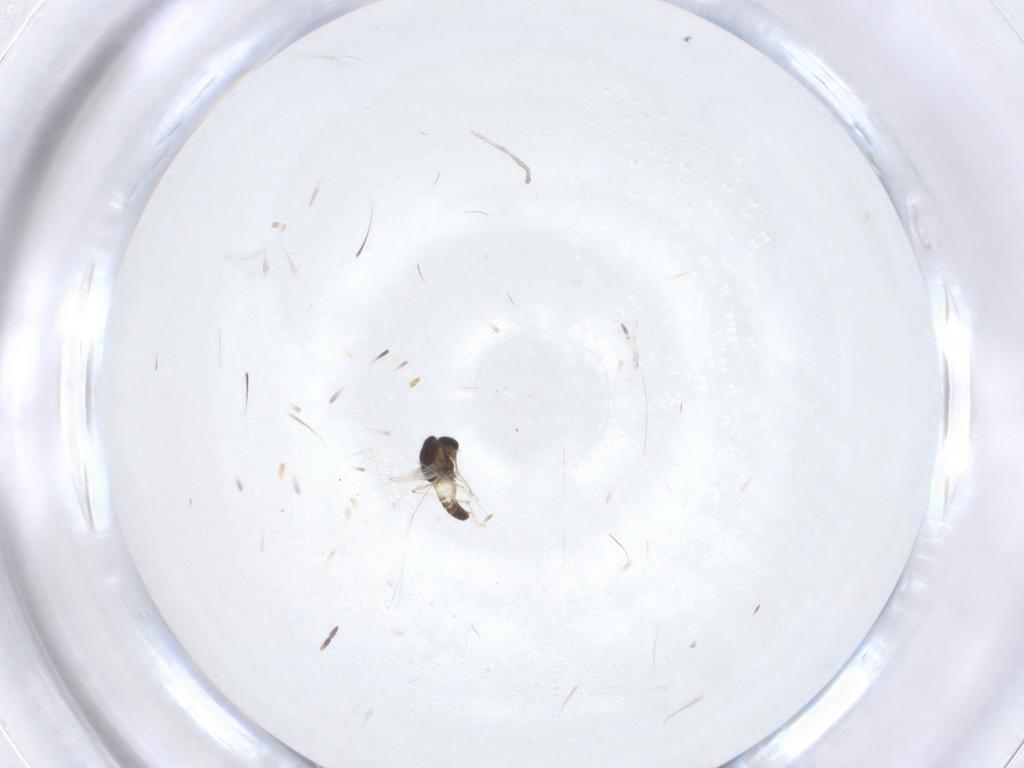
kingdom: Animalia
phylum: Arthropoda
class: Insecta
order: Diptera
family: Chironomidae
